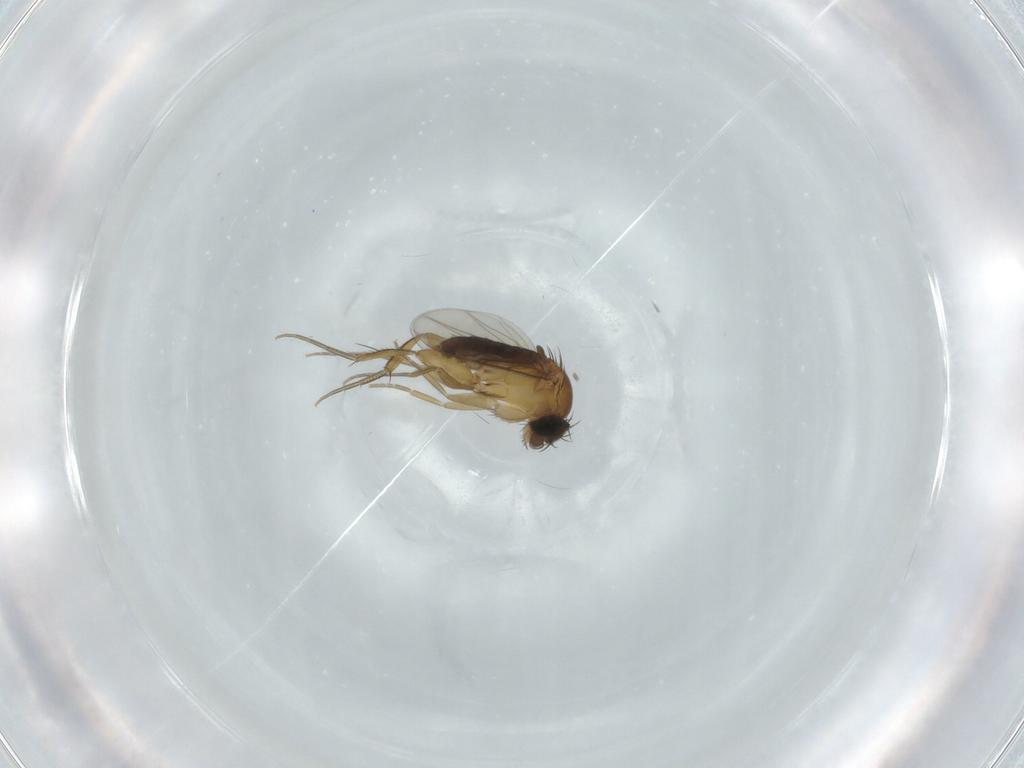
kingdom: Animalia
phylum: Arthropoda
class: Insecta
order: Diptera
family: Phoridae
